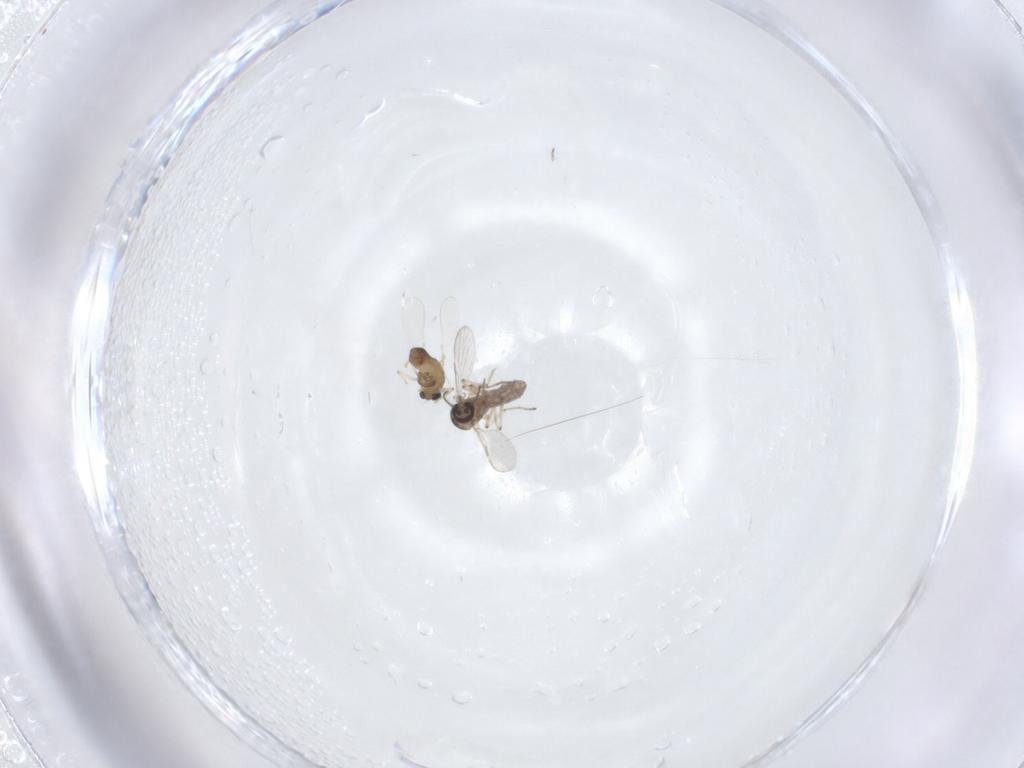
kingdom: Animalia
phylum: Arthropoda
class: Insecta
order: Diptera
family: Chironomidae
